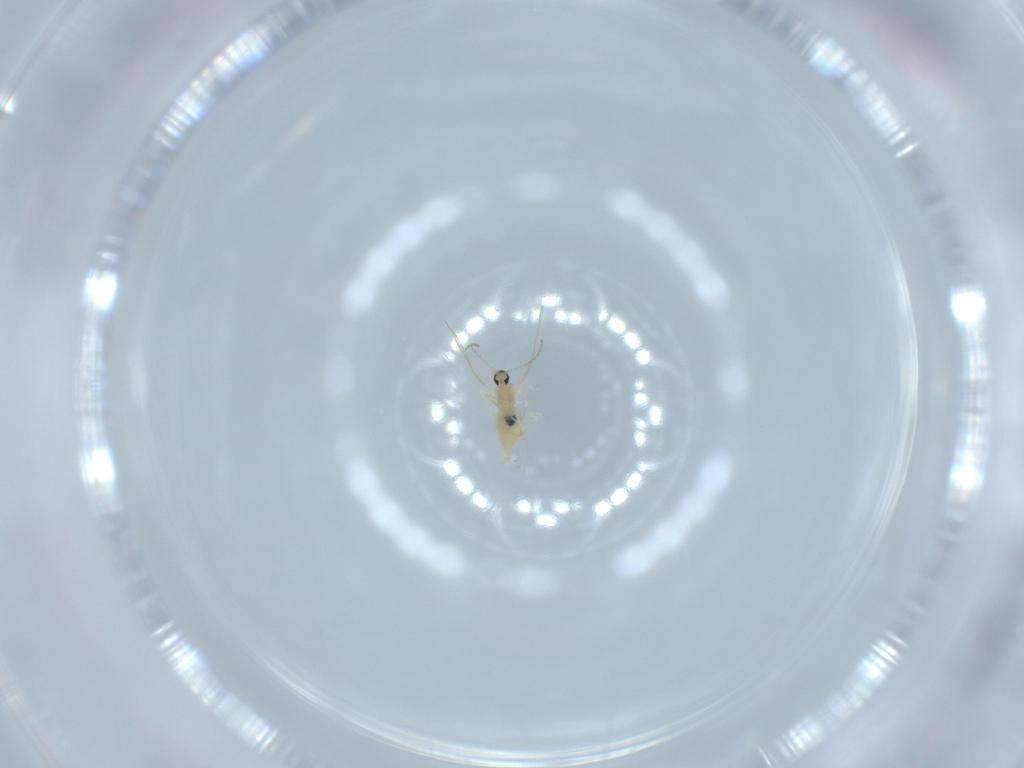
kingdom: Animalia
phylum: Arthropoda
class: Insecta
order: Diptera
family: Cecidomyiidae
